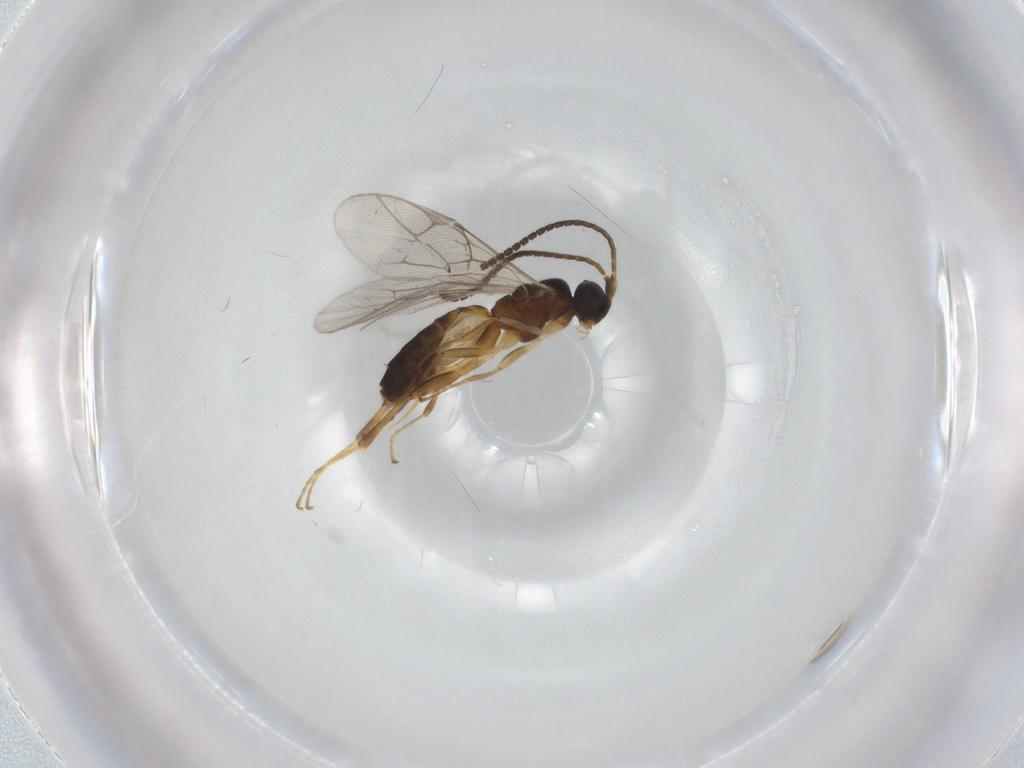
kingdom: Animalia
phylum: Arthropoda
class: Insecta
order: Hymenoptera
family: Ichneumonidae
